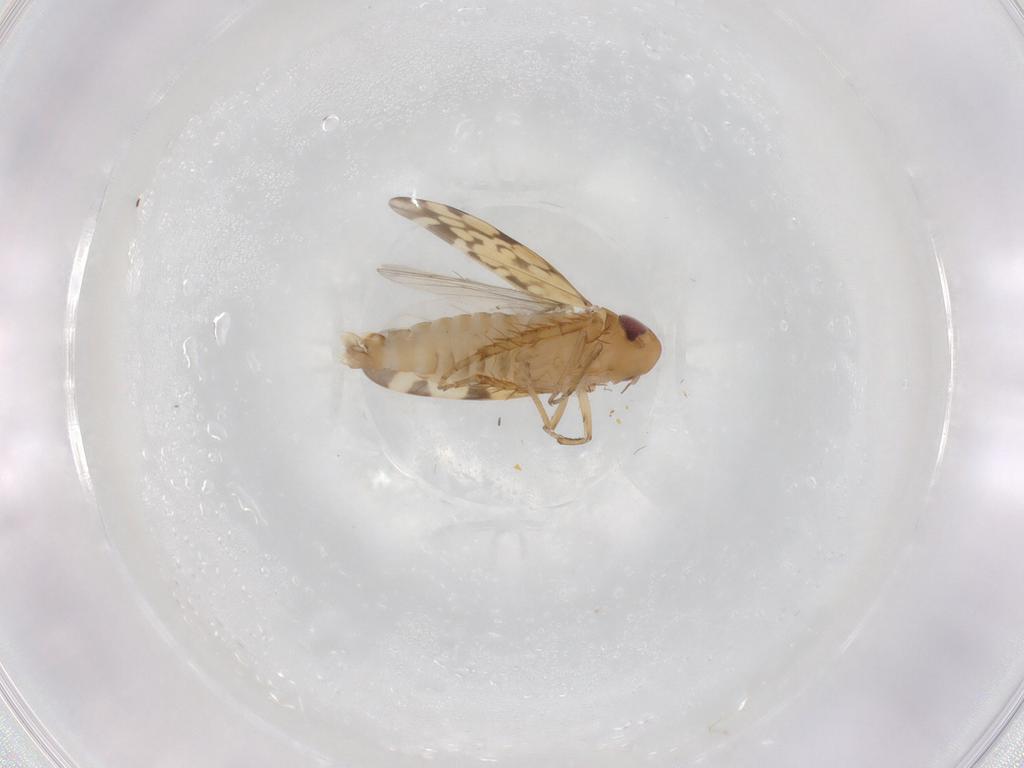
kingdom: Animalia
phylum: Arthropoda
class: Insecta
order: Hemiptera
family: Cicadellidae
